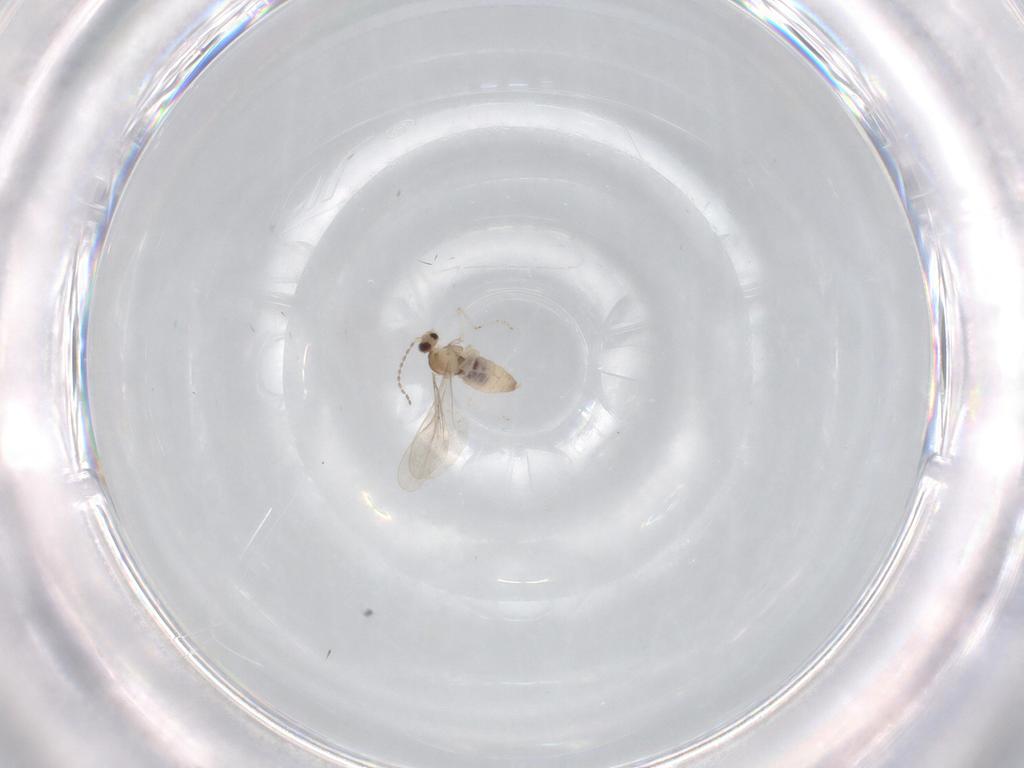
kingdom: Animalia
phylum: Arthropoda
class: Insecta
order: Diptera
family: Cecidomyiidae
